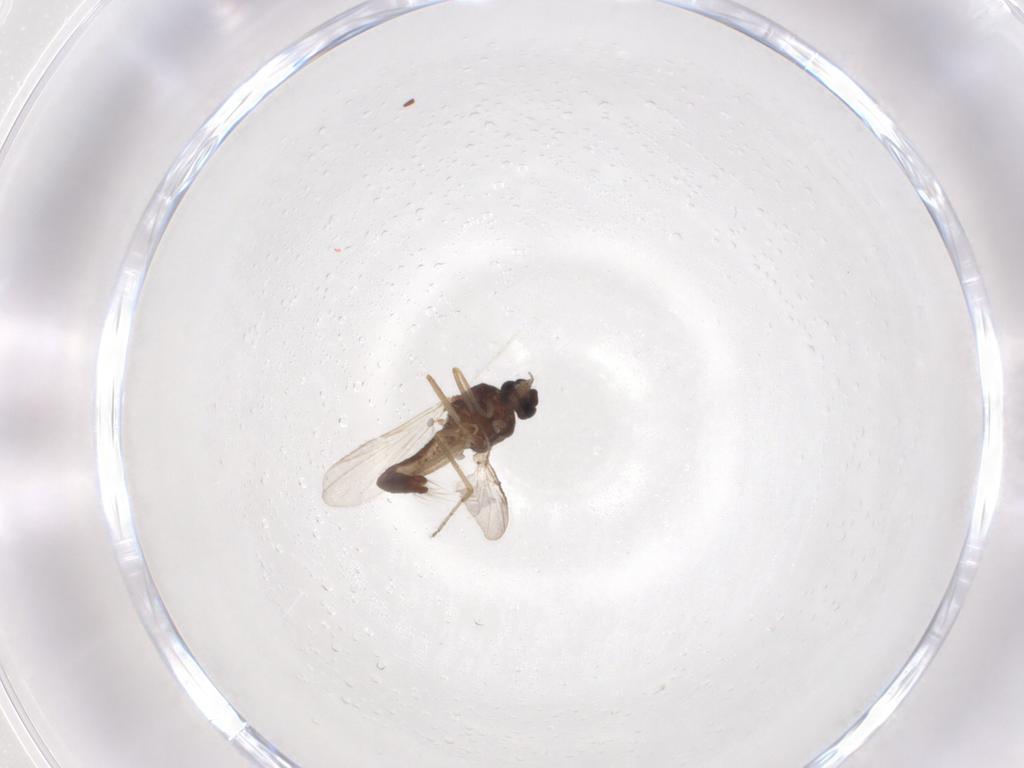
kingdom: Animalia
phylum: Arthropoda
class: Insecta
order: Diptera
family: Ceratopogonidae
